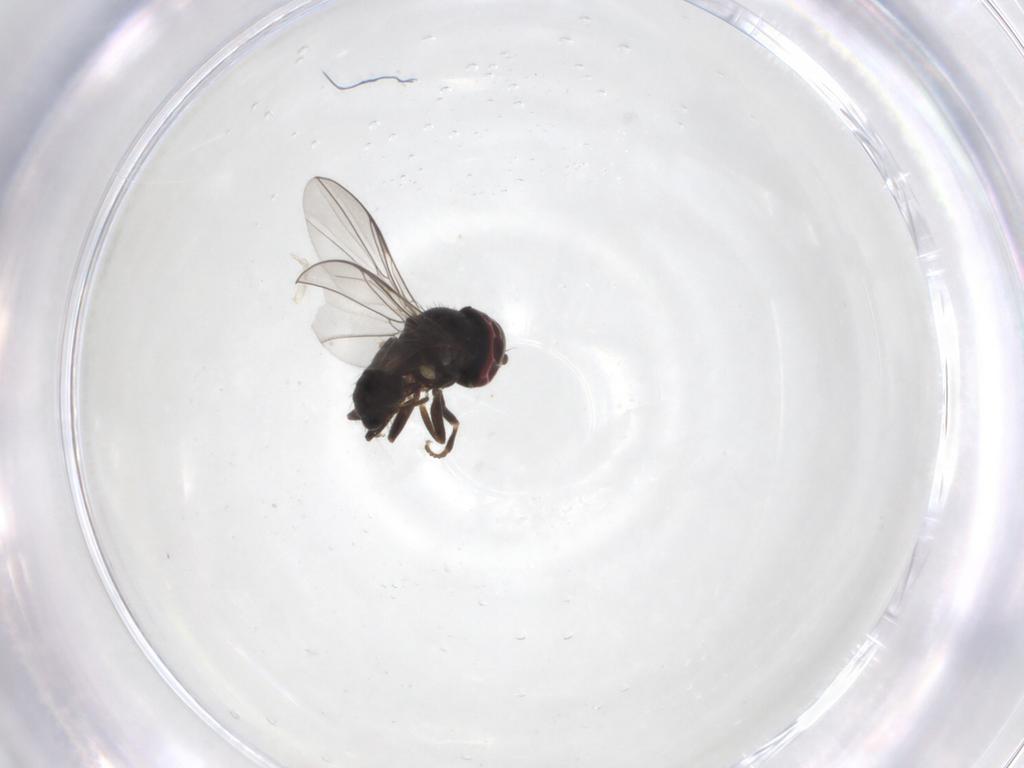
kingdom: Animalia
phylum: Arthropoda
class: Insecta
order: Diptera
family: Pipunculidae
